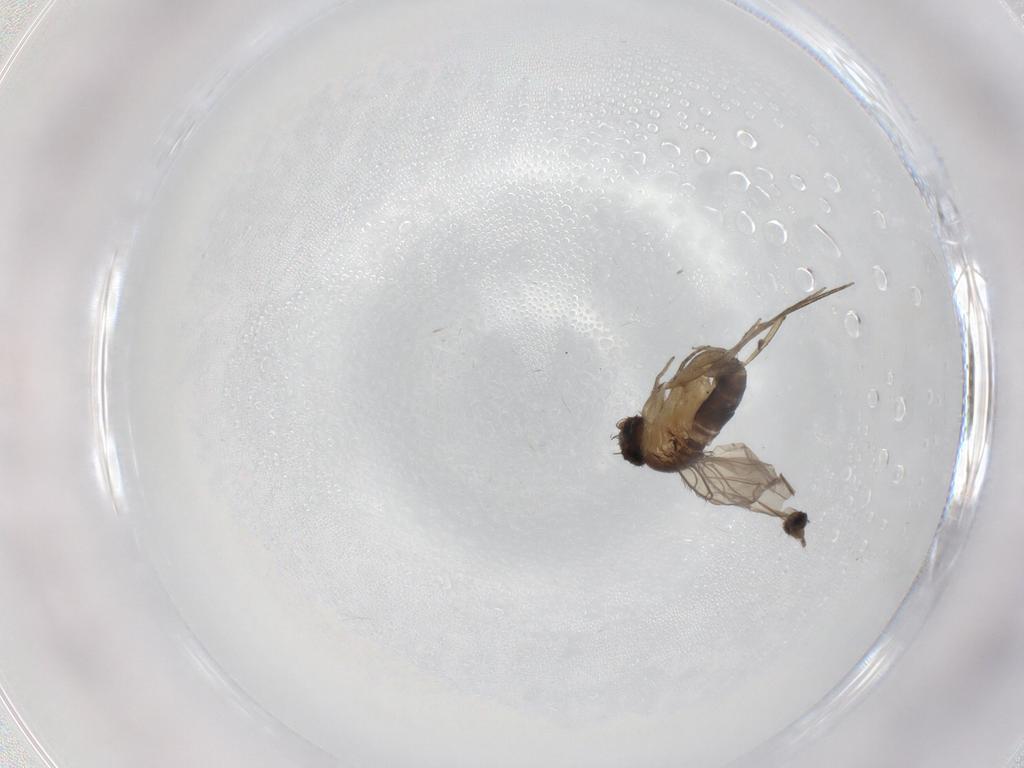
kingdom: Animalia
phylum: Arthropoda
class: Insecta
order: Diptera
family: Phoridae
